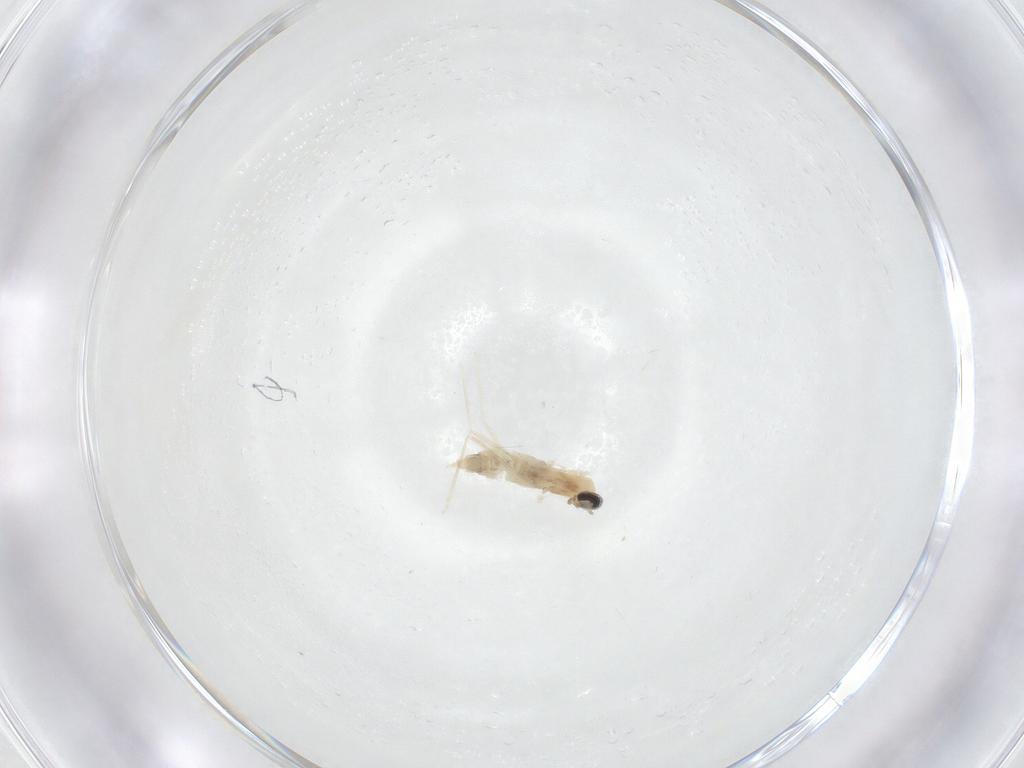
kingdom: Animalia
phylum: Arthropoda
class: Insecta
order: Diptera
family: Cecidomyiidae
